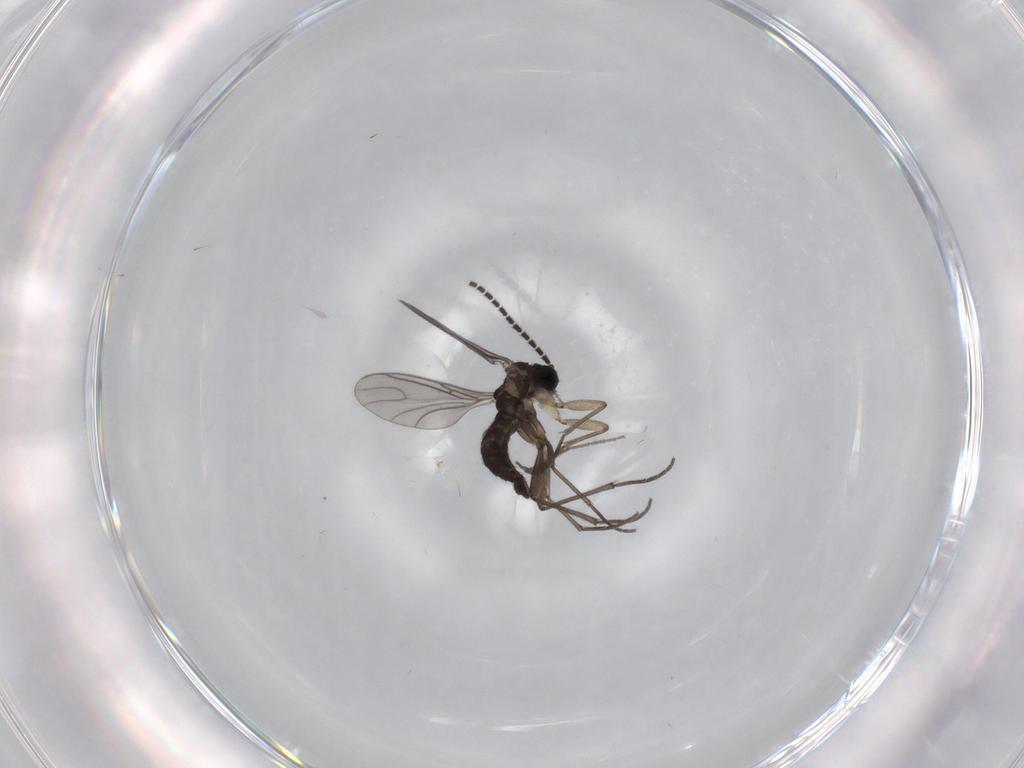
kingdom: Animalia
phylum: Arthropoda
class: Insecta
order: Diptera
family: Sciaridae
